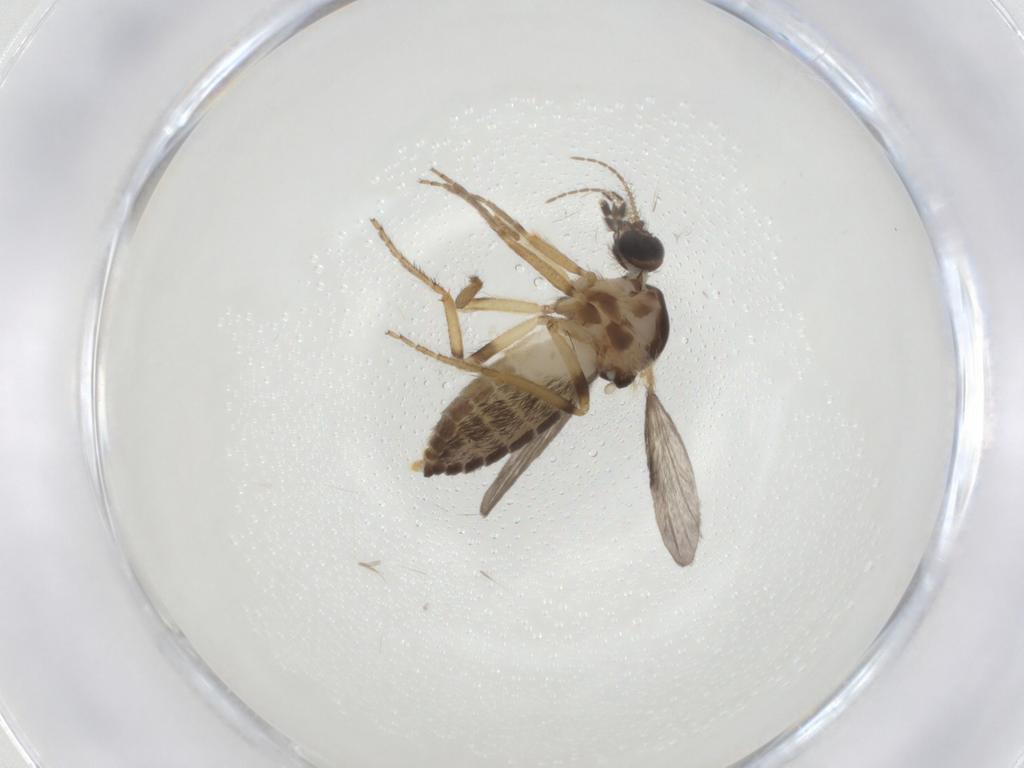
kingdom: Animalia
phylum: Arthropoda
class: Insecta
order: Diptera
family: Ceratopogonidae
